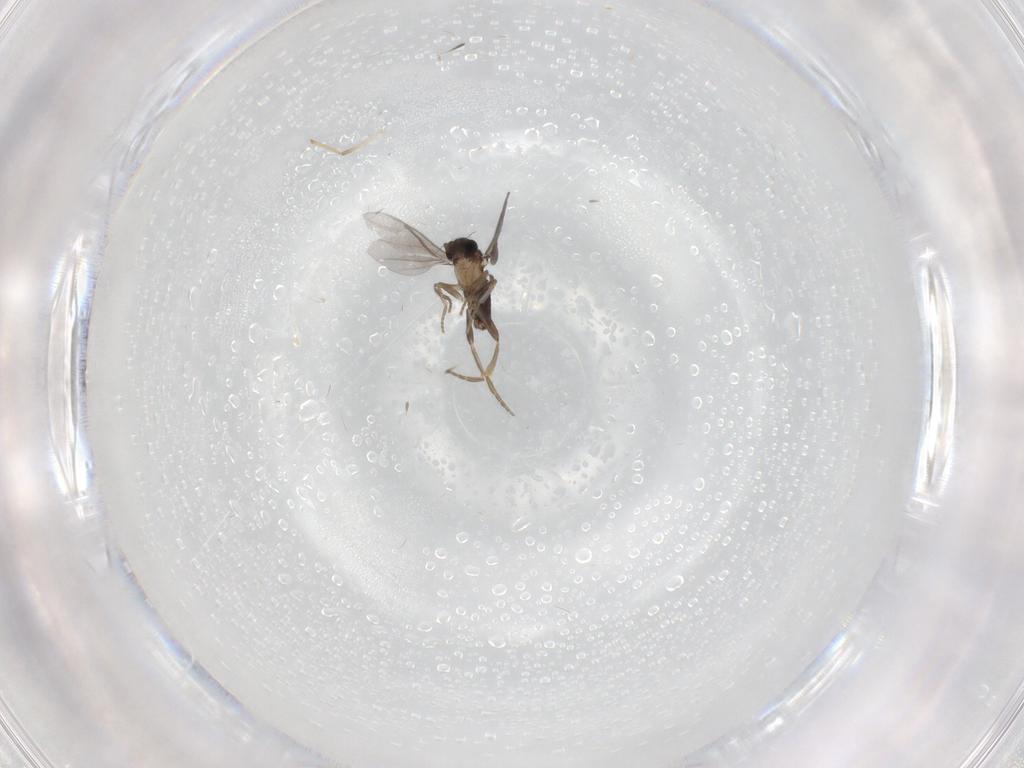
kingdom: Animalia
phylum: Arthropoda
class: Insecta
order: Diptera
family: Chironomidae
